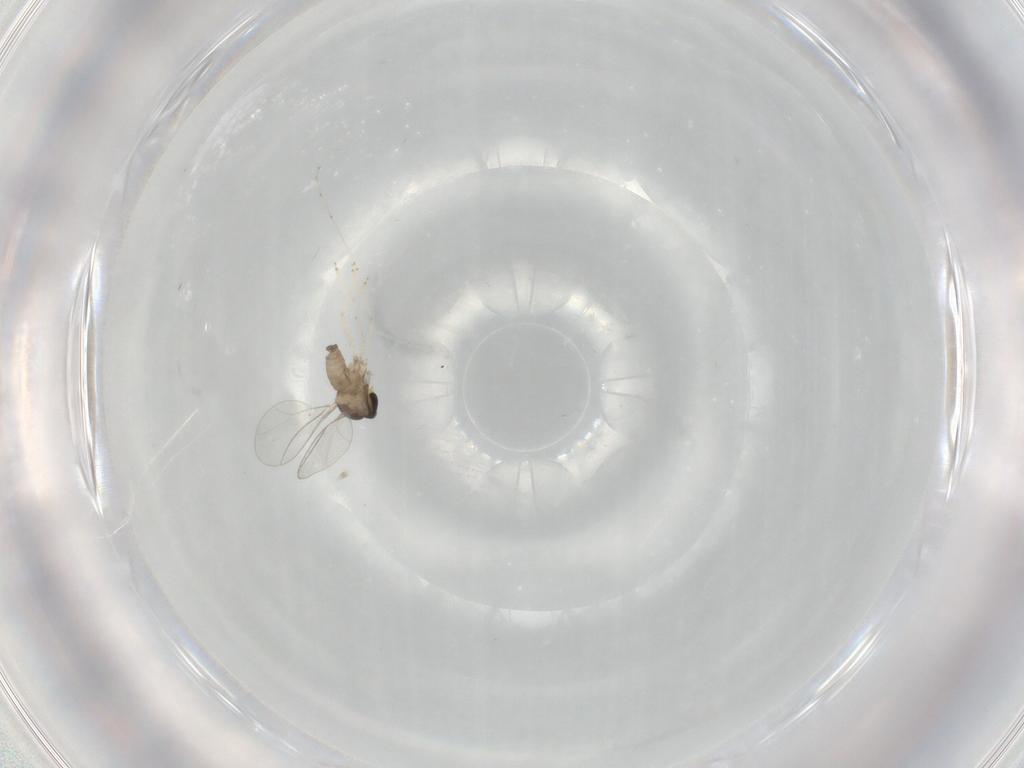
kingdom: Animalia
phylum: Arthropoda
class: Insecta
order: Diptera
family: Cecidomyiidae
